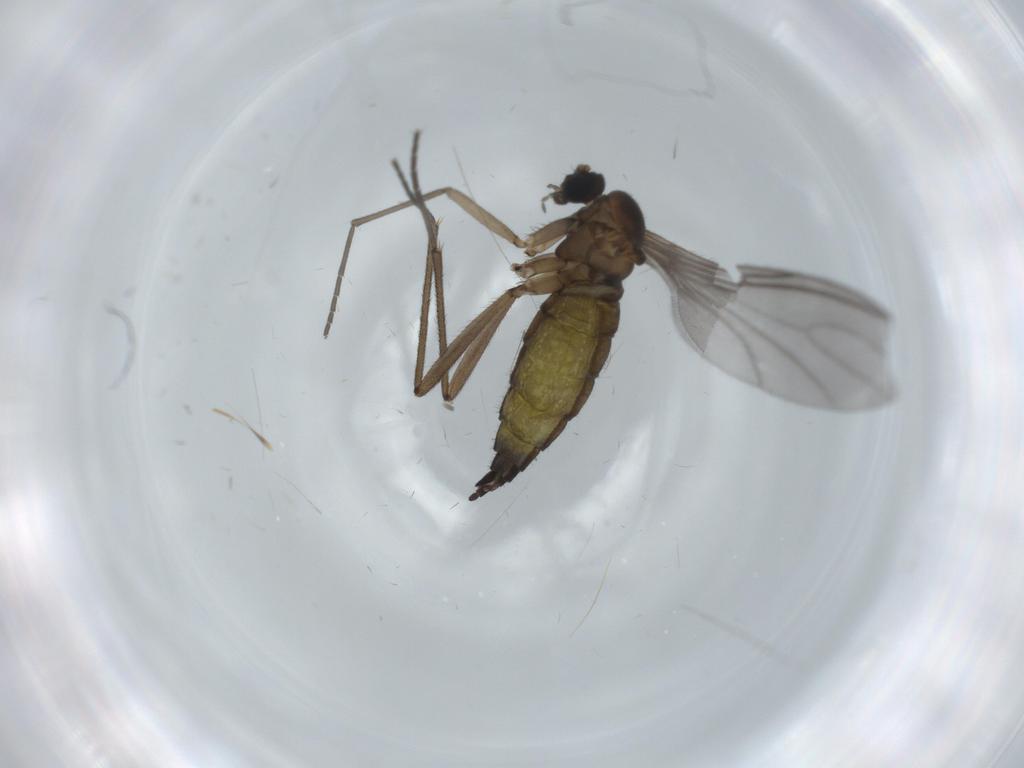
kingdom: Animalia
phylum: Arthropoda
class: Insecta
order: Diptera
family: Sciaridae
